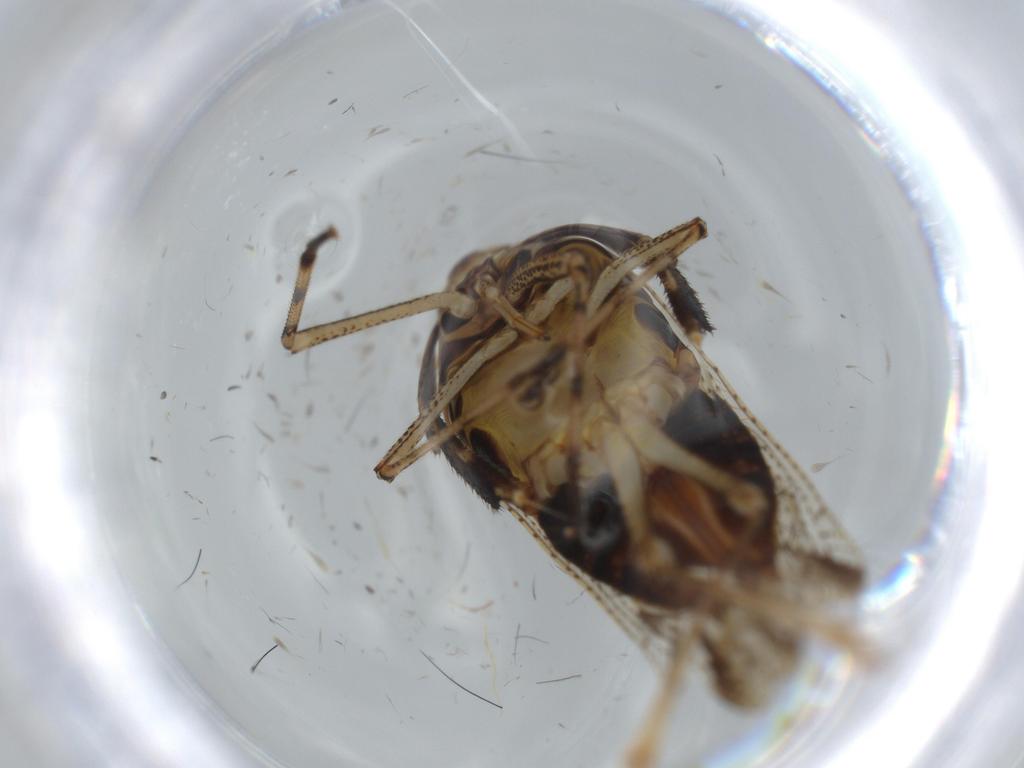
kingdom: Animalia
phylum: Arthropoda
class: Insecta
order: Hemiptera
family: Delphacidae
